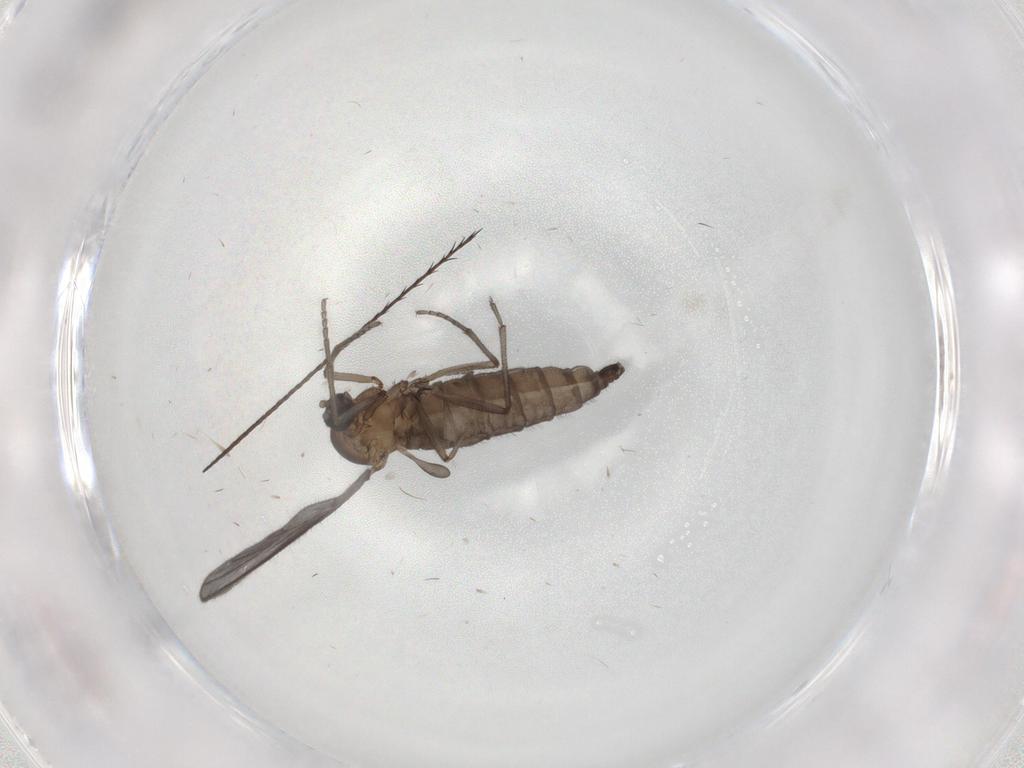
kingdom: Animalia
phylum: Arthropoda
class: Insecta
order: Diptera
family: Sciaridae
